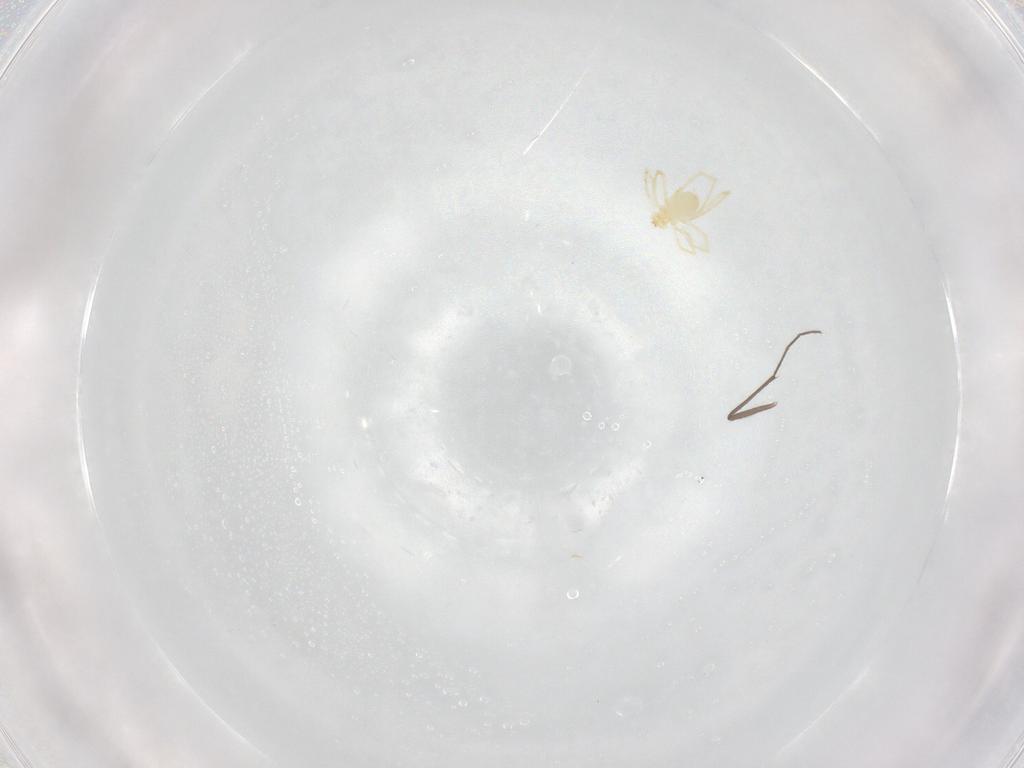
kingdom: Animalia
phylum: Arthropoda
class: Arachnida
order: Trombidiformes
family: Erythraeidae
